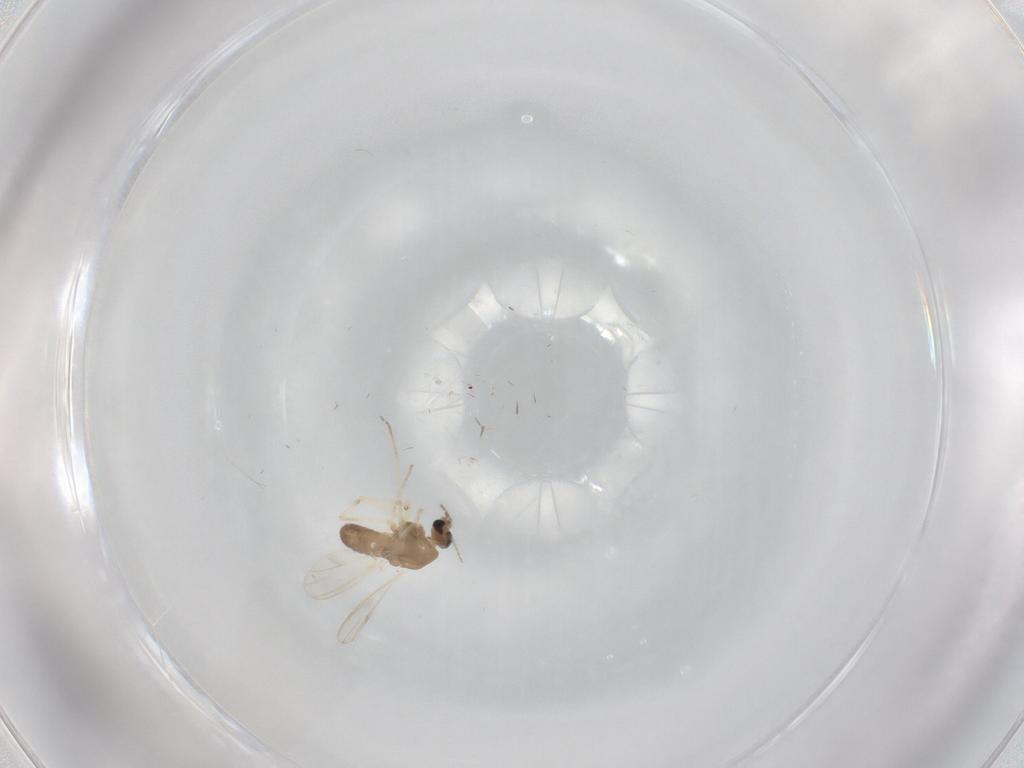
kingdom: Animalia
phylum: Arthropoda
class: Insecta
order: Diptera
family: Chironomidae
